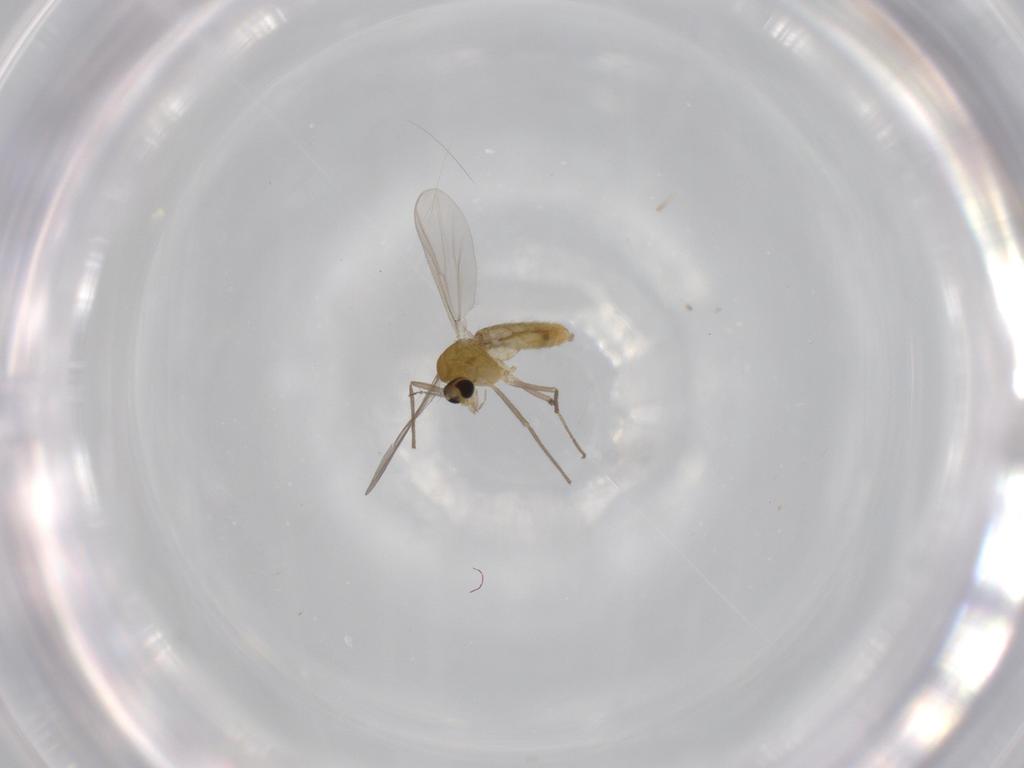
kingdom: Animalia
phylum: Arthropoda
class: Insecta
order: Diptera
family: Chironomidae
